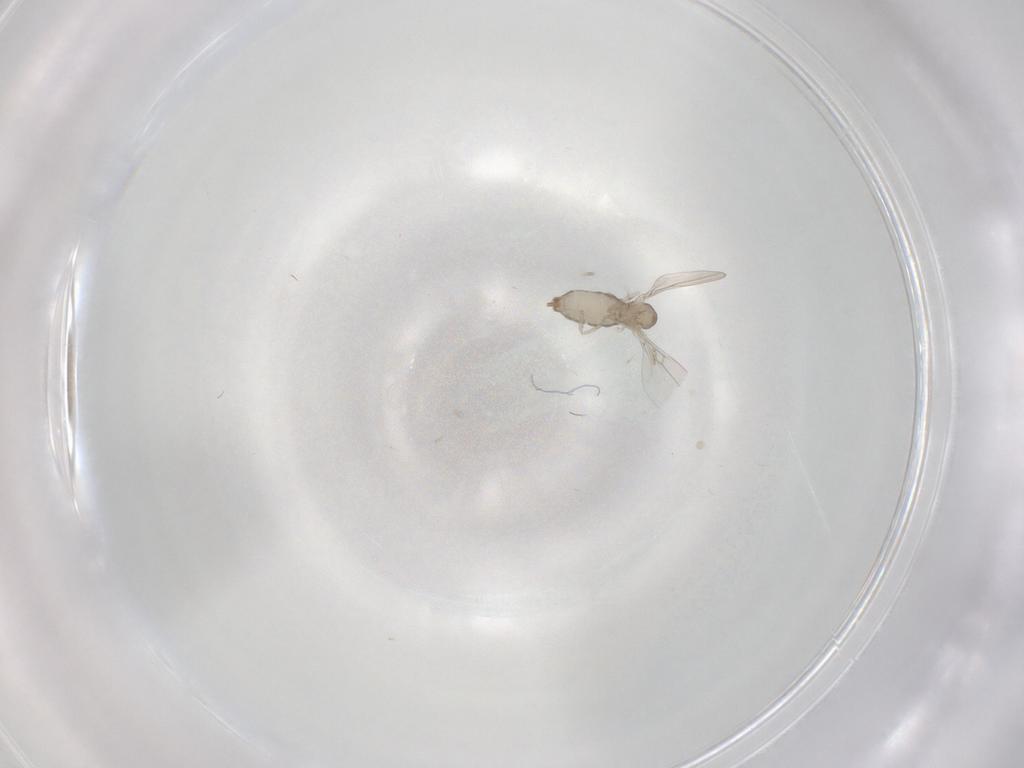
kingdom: Animalia
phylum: Arthropoda
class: Insecta
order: Diptera
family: Cecidomyiidae
